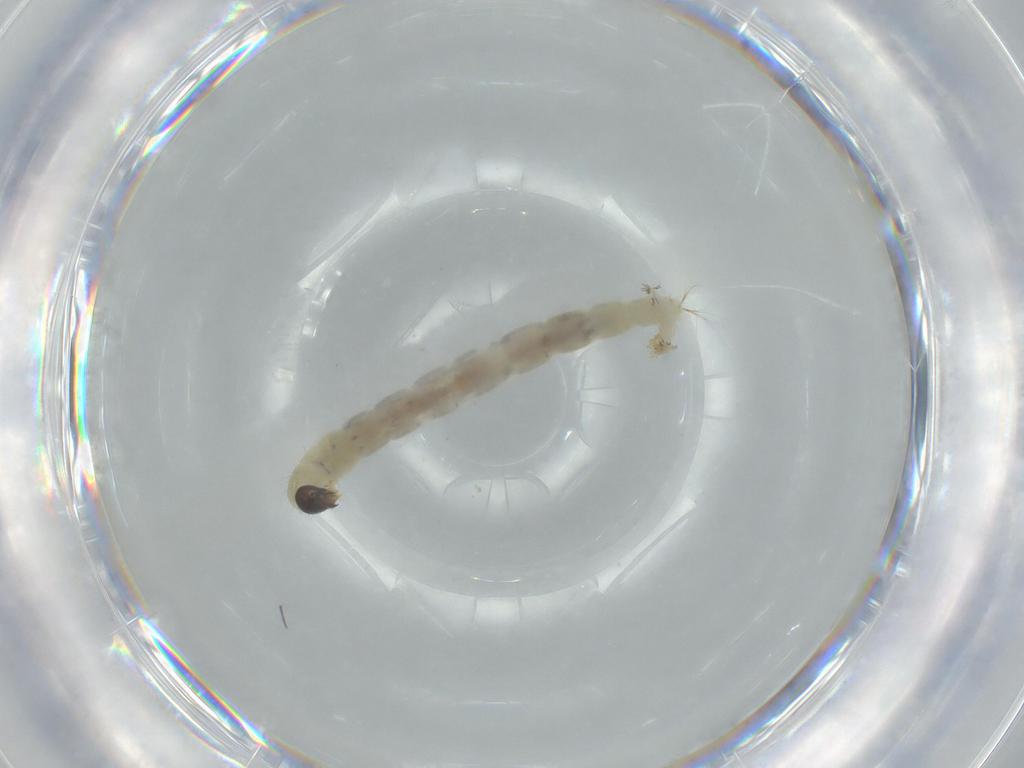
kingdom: Animalia
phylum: Arthropoda
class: Insecta
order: Diptera
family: Chironomidae
